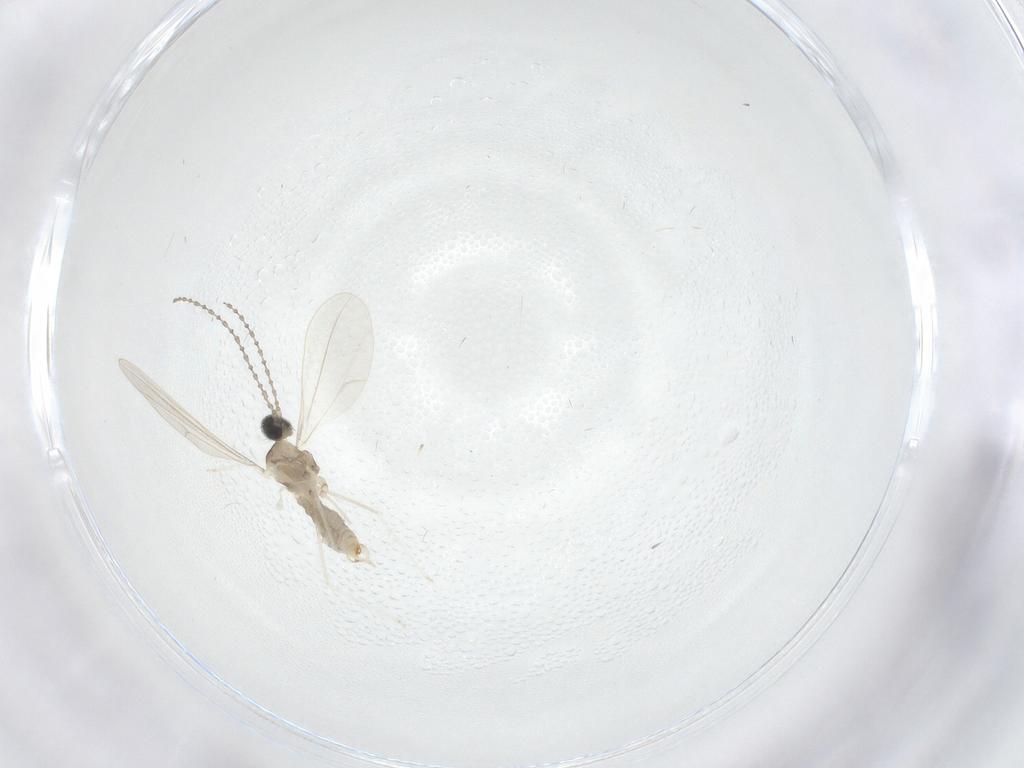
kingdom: Animalia
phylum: Arthropoda
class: Insecta
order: Diptera
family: Cecidomyiidae
